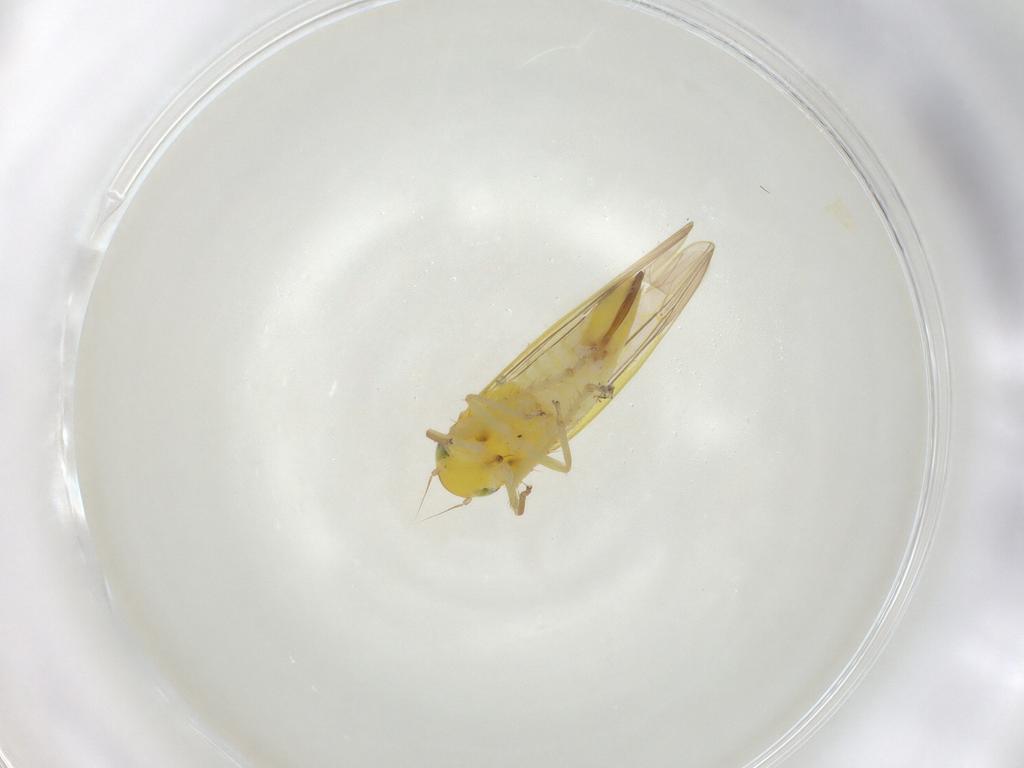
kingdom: Animalia
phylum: Arthropoda
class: Insecta
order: Hemiptera
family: Cicadellidae
